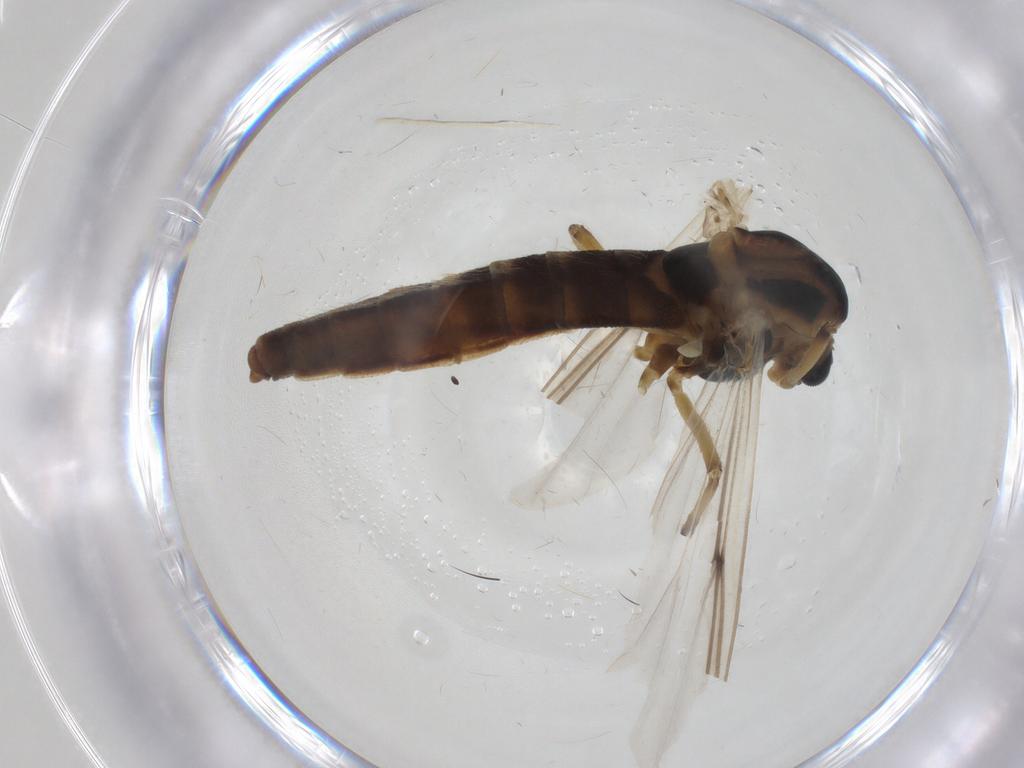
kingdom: Animalia
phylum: Arthropoda
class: Insecta
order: Diptera
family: Chironomidae
